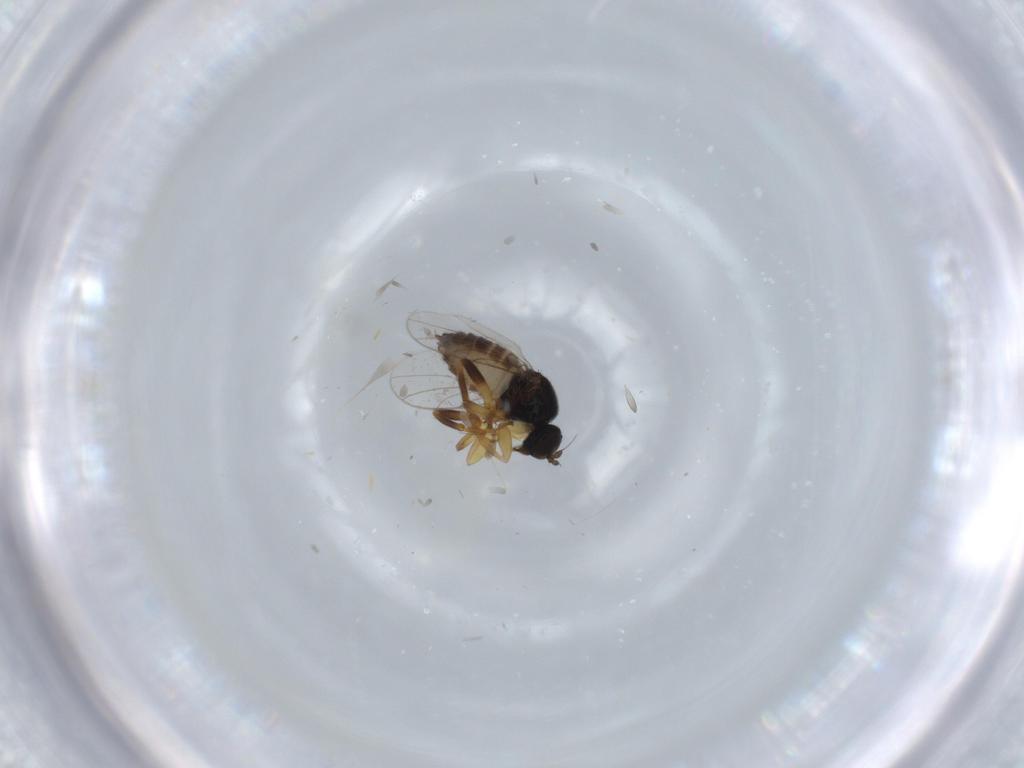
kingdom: Animalia
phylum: Arthropoda
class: Insecta
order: Diptera
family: Hybotidae
